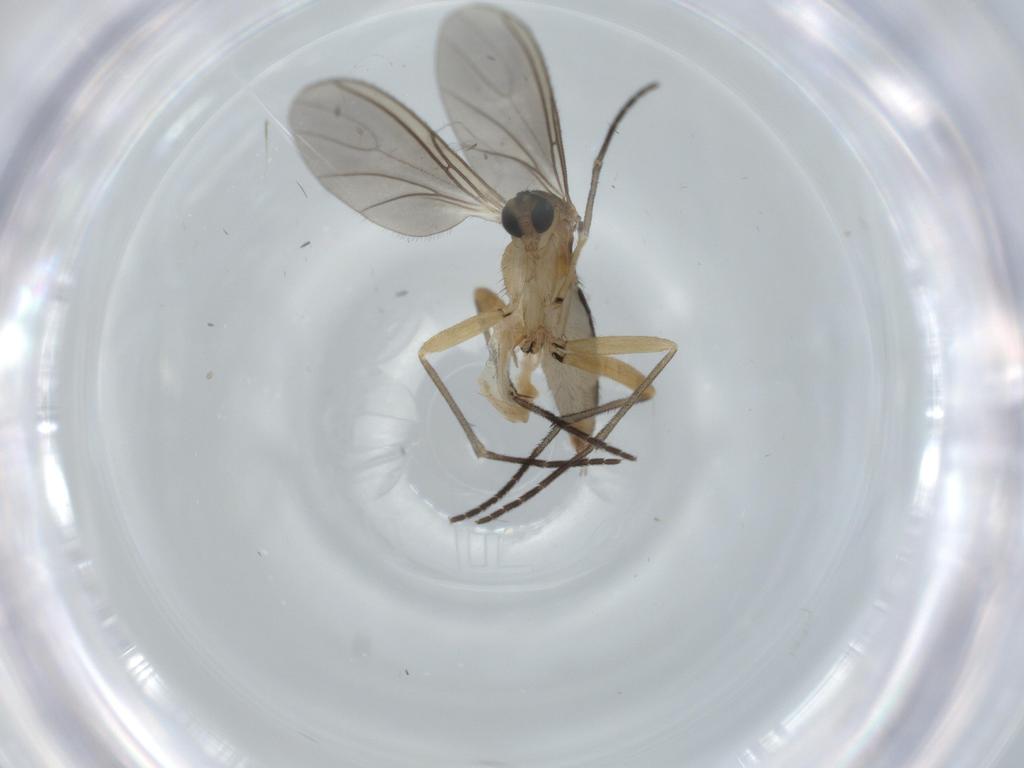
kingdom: Animalia
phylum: Arthropoda
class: Insecta
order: Diptera
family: Sciaridae
